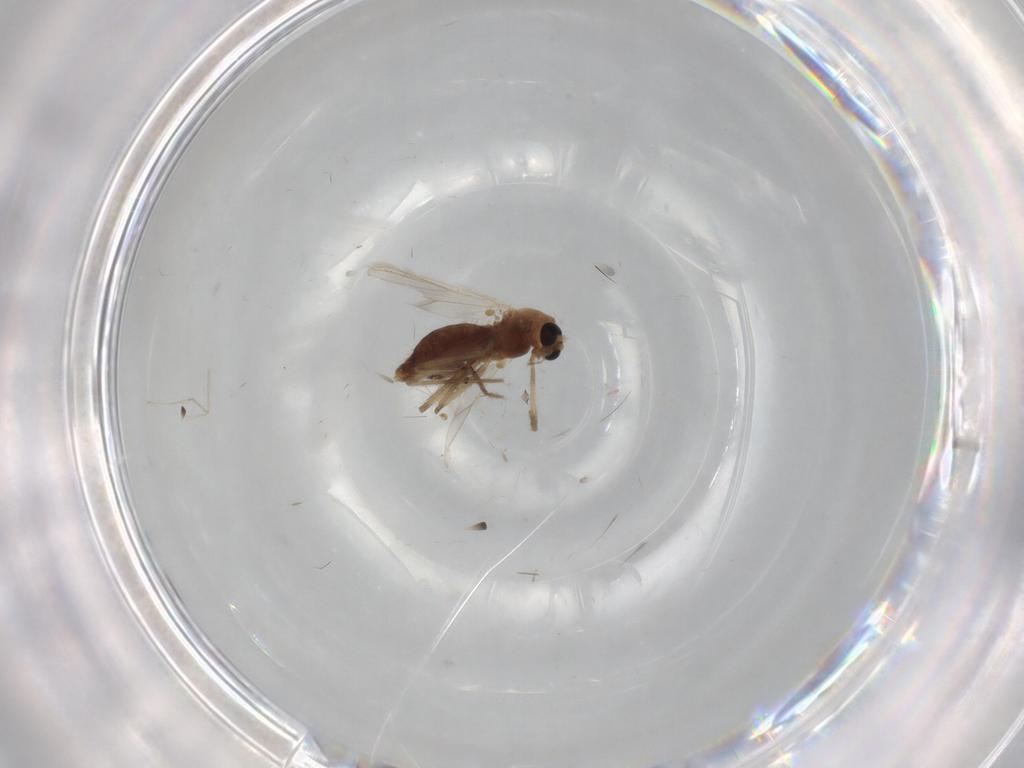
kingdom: Animalia
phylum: Arthropoda
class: Insecta
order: Diptera
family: Chironomidae
